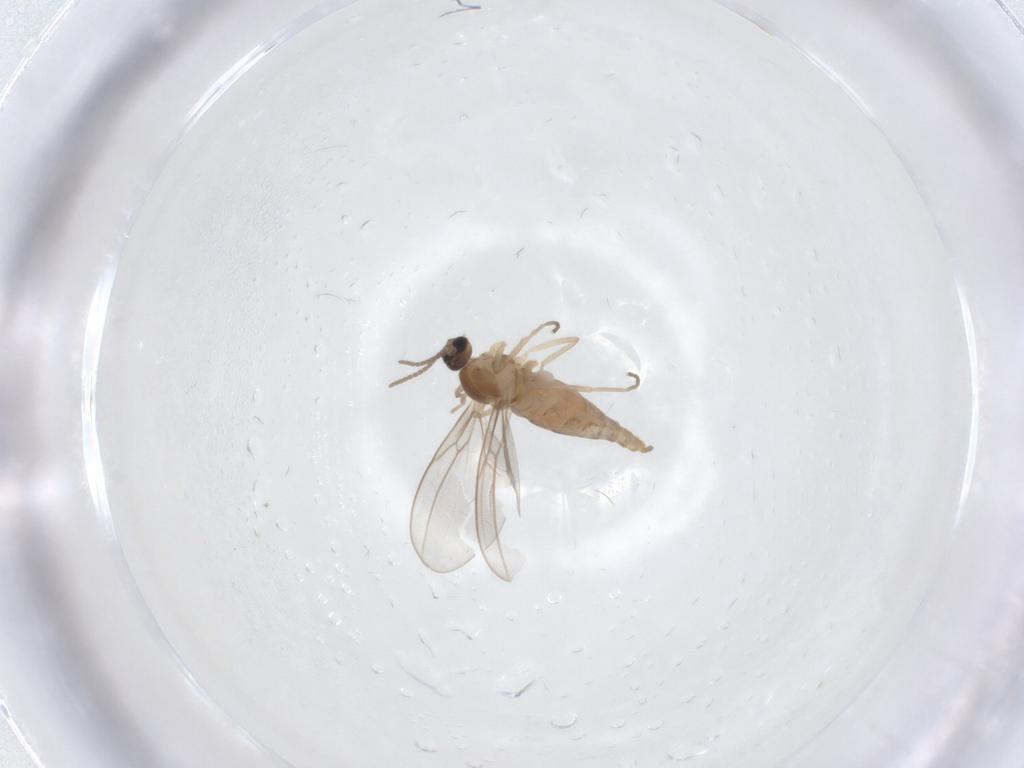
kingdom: Animalia
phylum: Arthropoda
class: Insecta
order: Diptera
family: Cecidomyiidae
